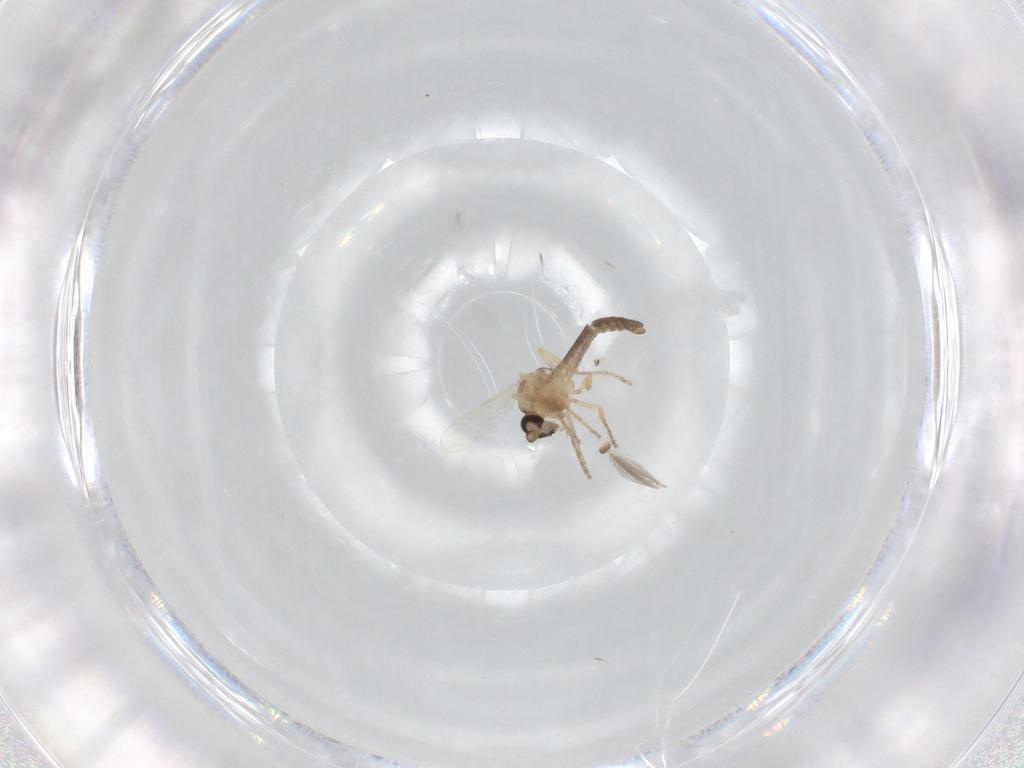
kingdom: Animalia
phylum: Arthropoda
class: Insecta
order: Diptera
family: Ceratopogonidae
